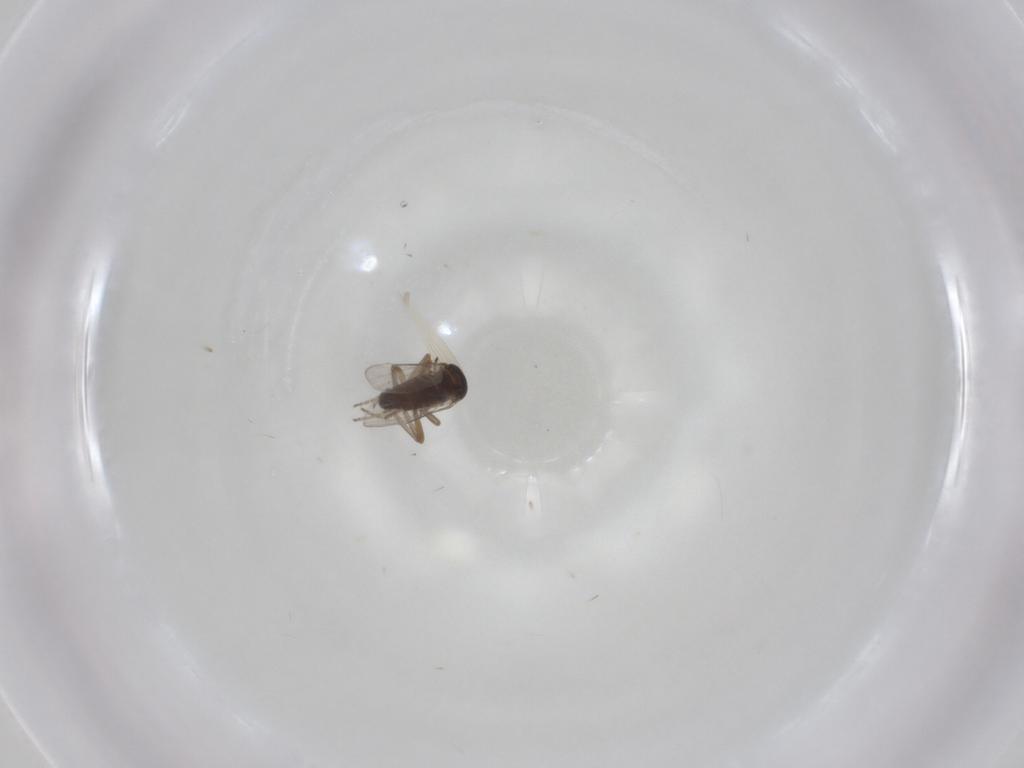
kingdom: Animalia
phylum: Arthropoda
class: Insecta
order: Diptera
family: Ceratopogonidae
